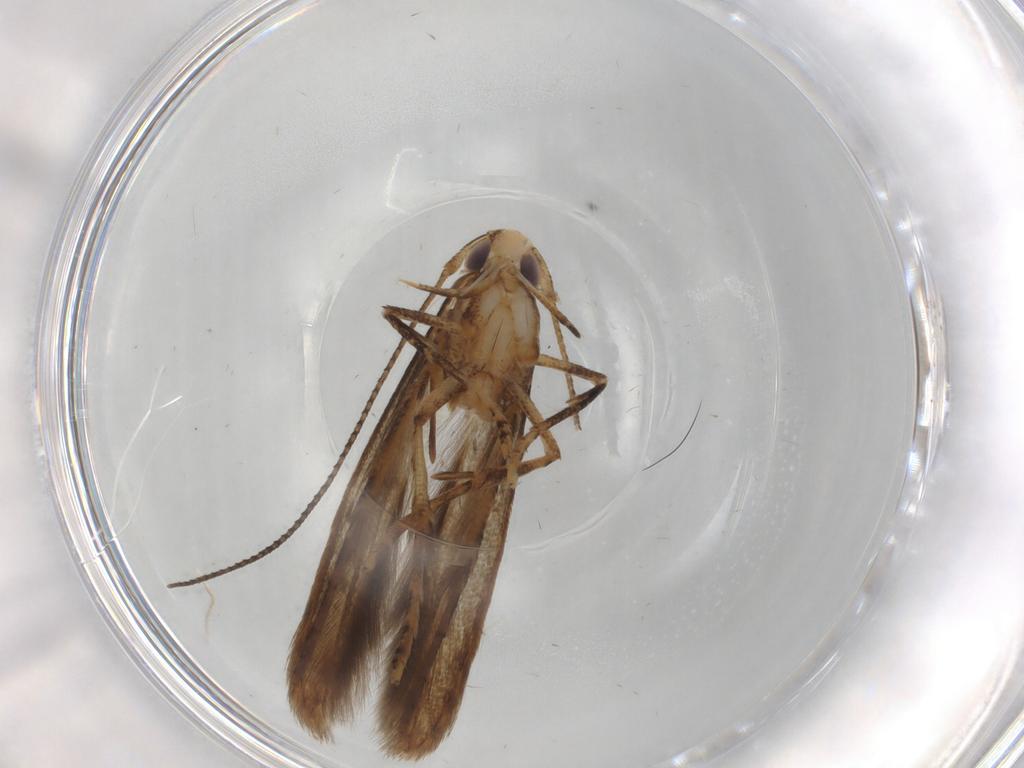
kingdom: Animalia
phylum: Arthropoda
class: Insecta
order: Lepidoptera
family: Gelechiidae
